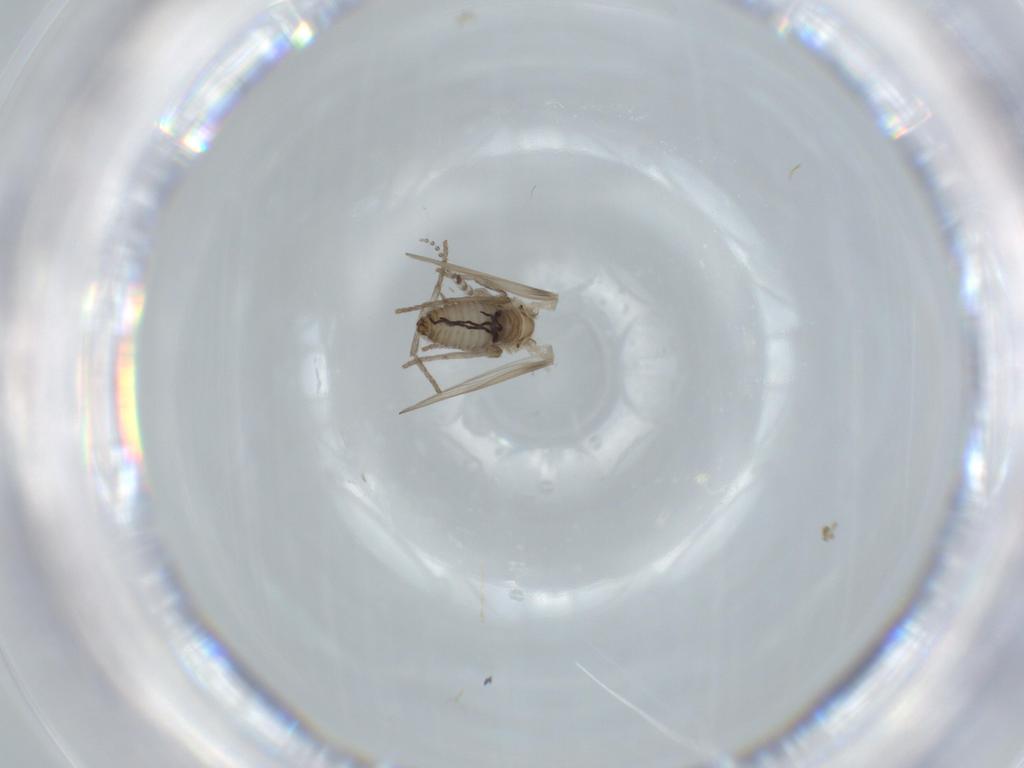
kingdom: Animalia
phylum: Arthropoda
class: Insecta
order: Diptera
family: Psychodidae
